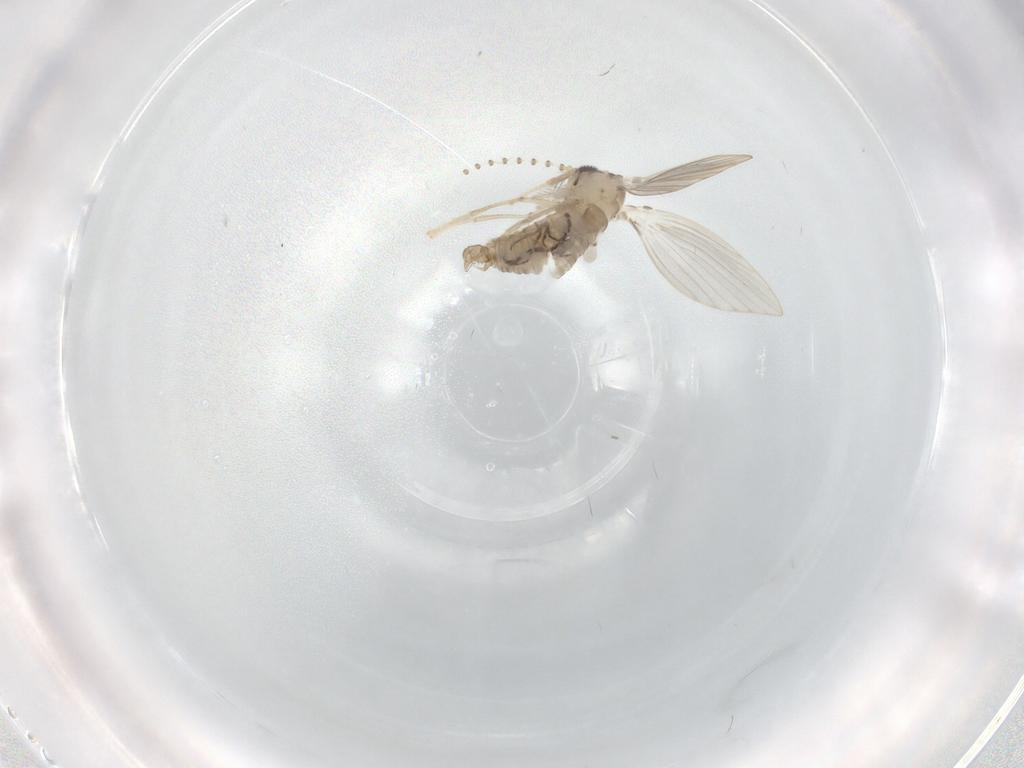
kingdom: Animalia
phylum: Arthropoda
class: Insecta
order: Diptera
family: Psychodidae
